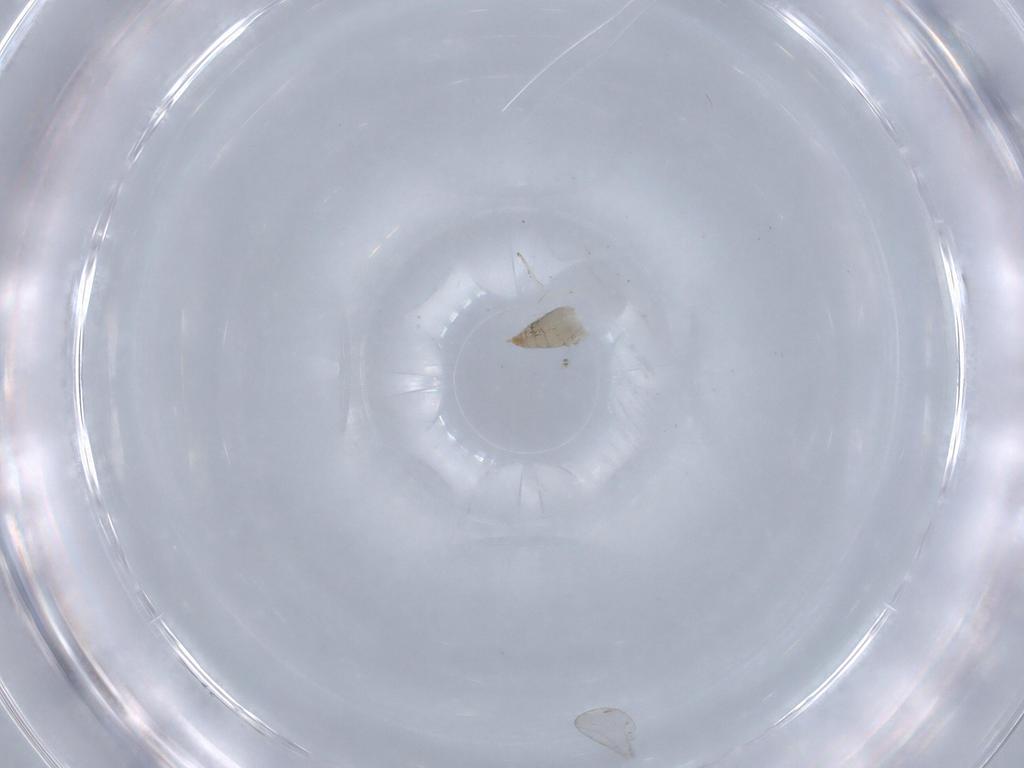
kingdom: Animalia
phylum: Arthropoda
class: Insecta
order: Diptera
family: Cecidomyiidae
